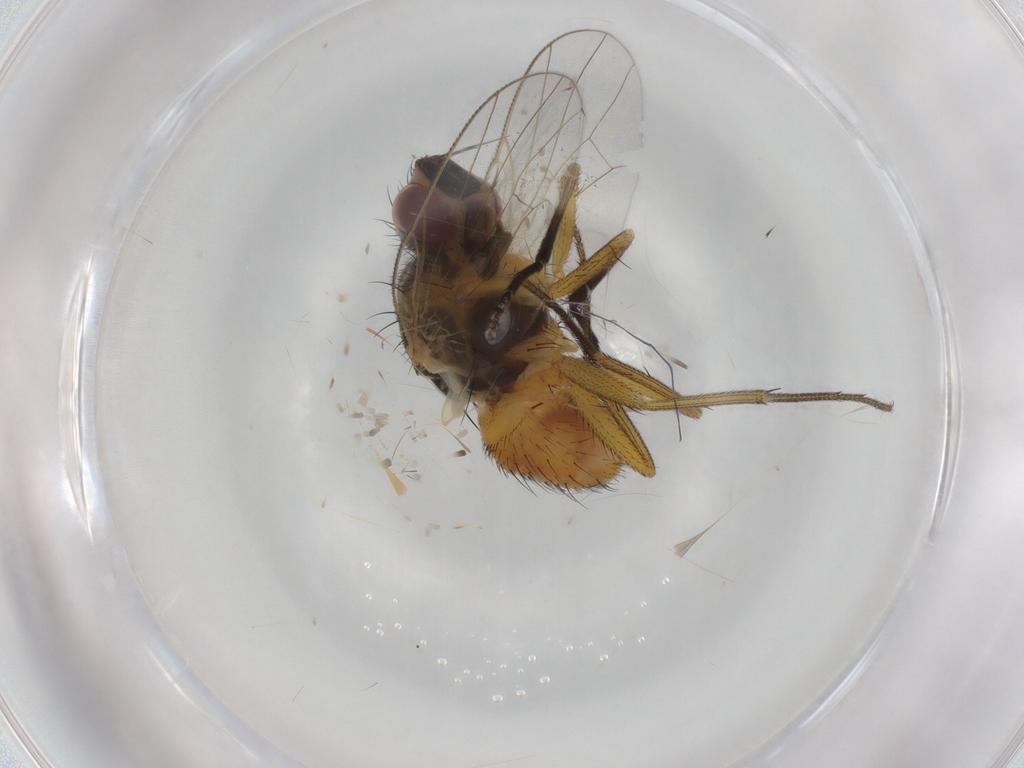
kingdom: Animalia
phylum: Arthropoda
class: Insecta
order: Diptera
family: Muscidae
